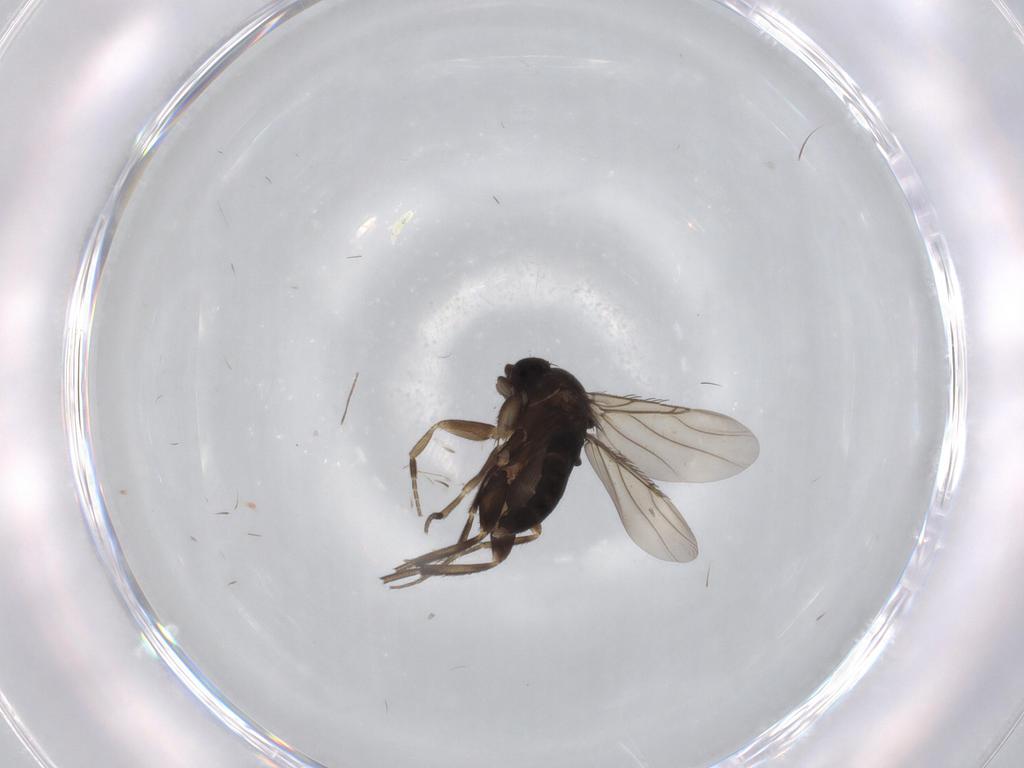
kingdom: Animalia
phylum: Arthropoda
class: Insecta
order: Diptera
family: Phoridae
